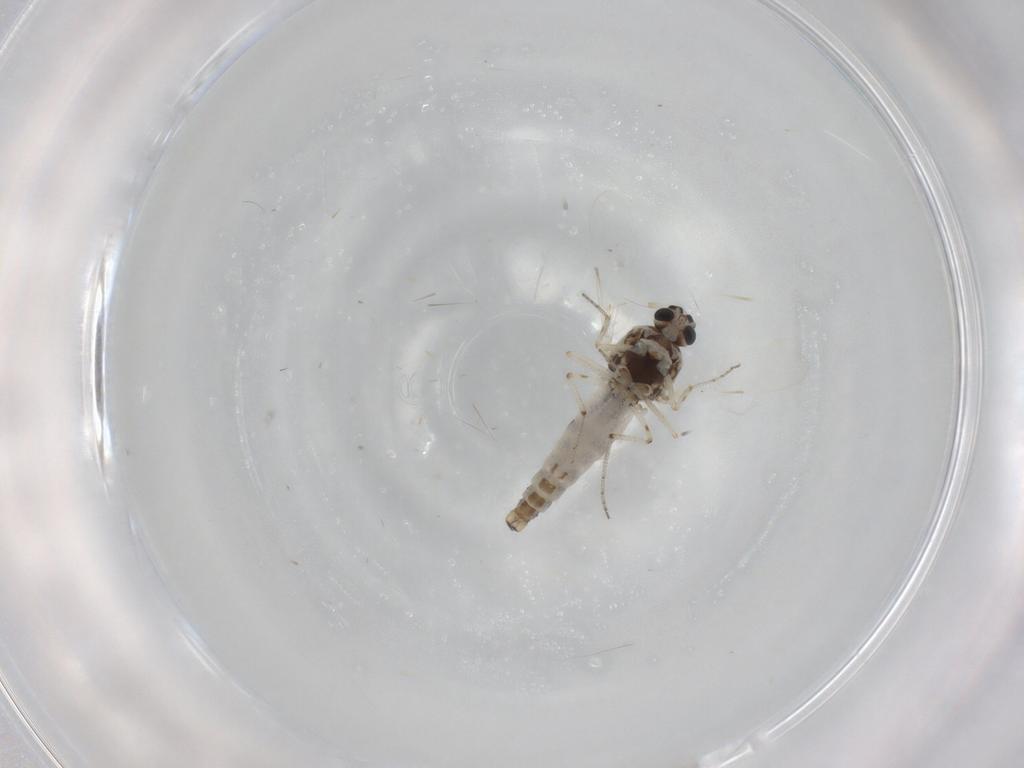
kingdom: Animalia
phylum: Arthropoda
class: Insecta
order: Diptera
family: Ceratopogonidae
